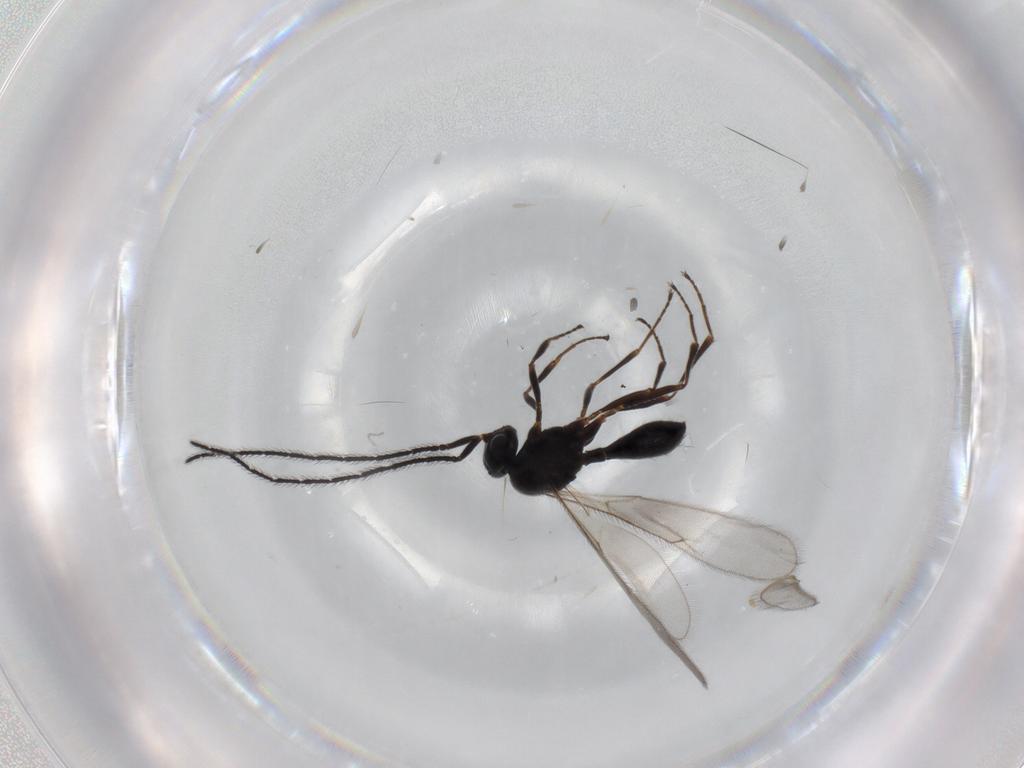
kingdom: Animalia
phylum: Arthropoda
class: Insecta
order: Hymenoptera
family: Scelionidae
